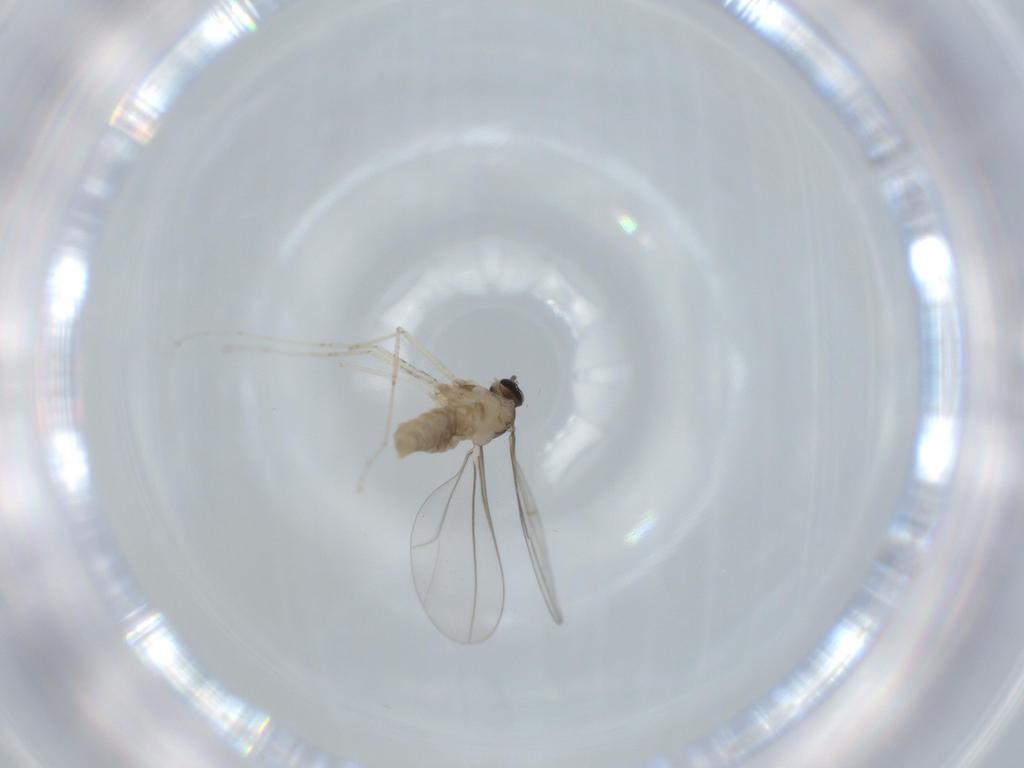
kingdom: Animalia
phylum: Arthropoda
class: Insecta
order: Diptera
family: Cecidomyiidae
